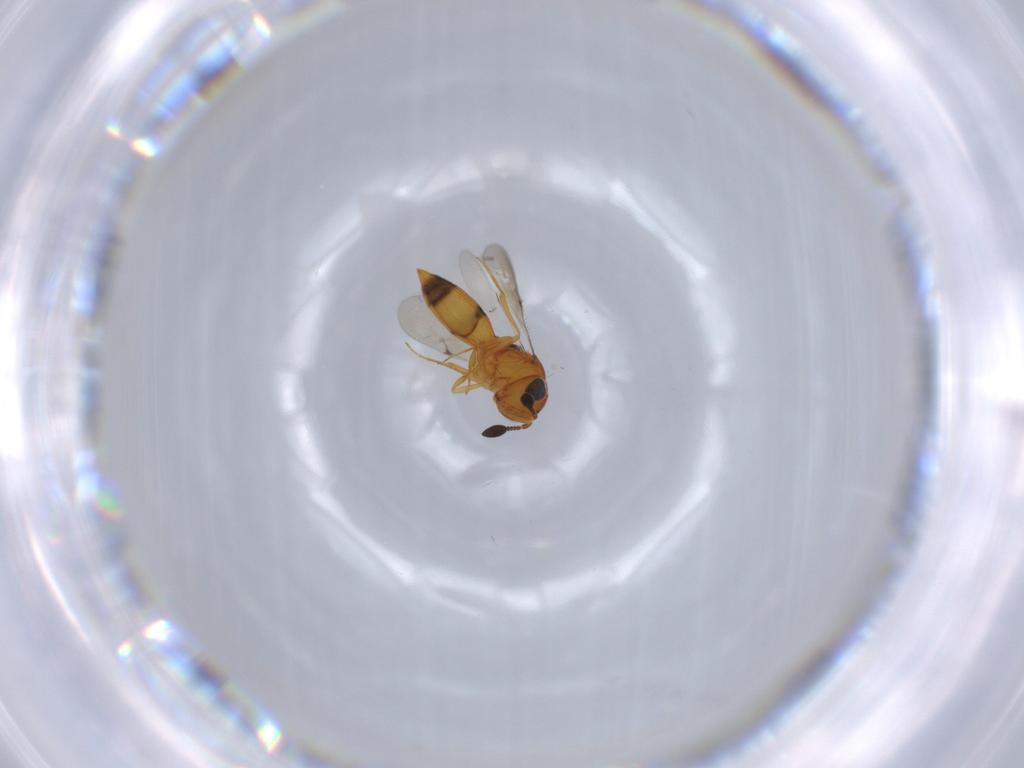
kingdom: Animalia
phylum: Arthropoda
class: Insecta
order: Hymenoptera
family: Scelionidae
